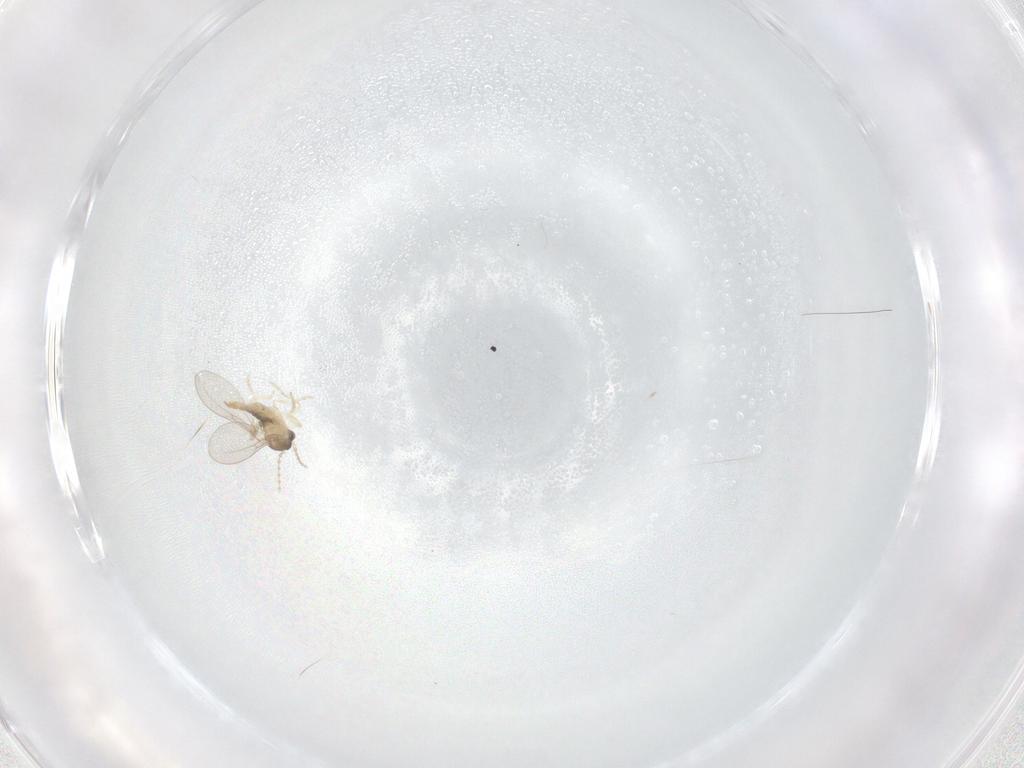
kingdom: Animalia
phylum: Arthropoda
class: Insecta
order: Diptera
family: Cecidomyiidae
